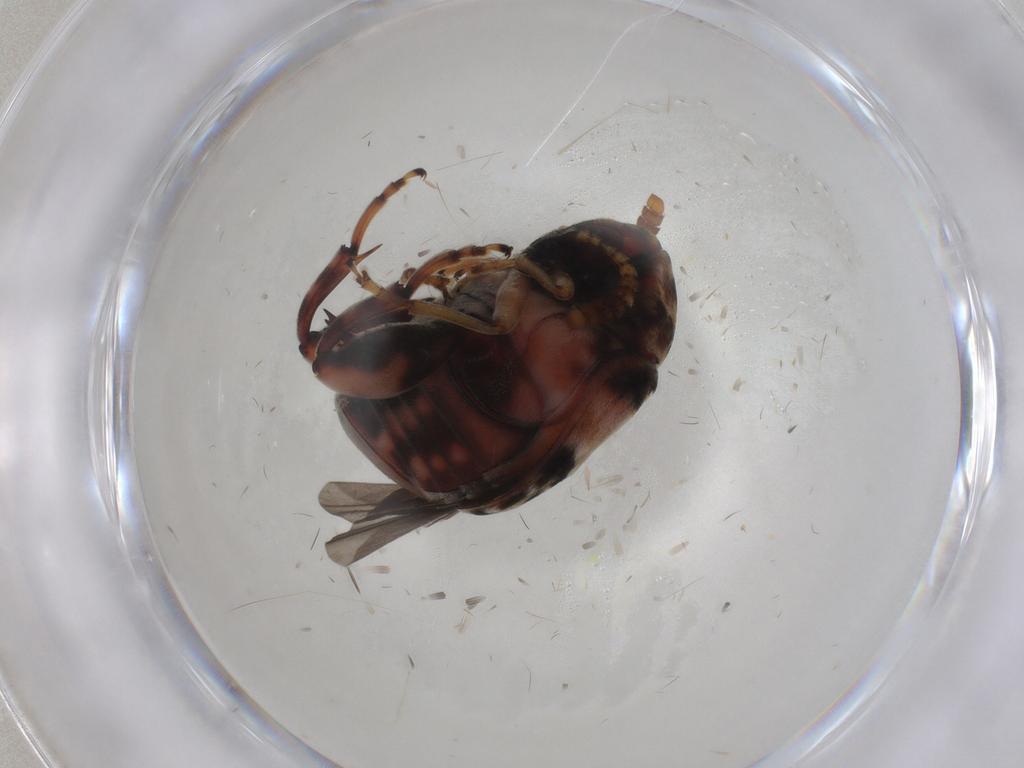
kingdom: Animalia
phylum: Arthropoda
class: Insecta
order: Coleoptera
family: Chrysomelidae
